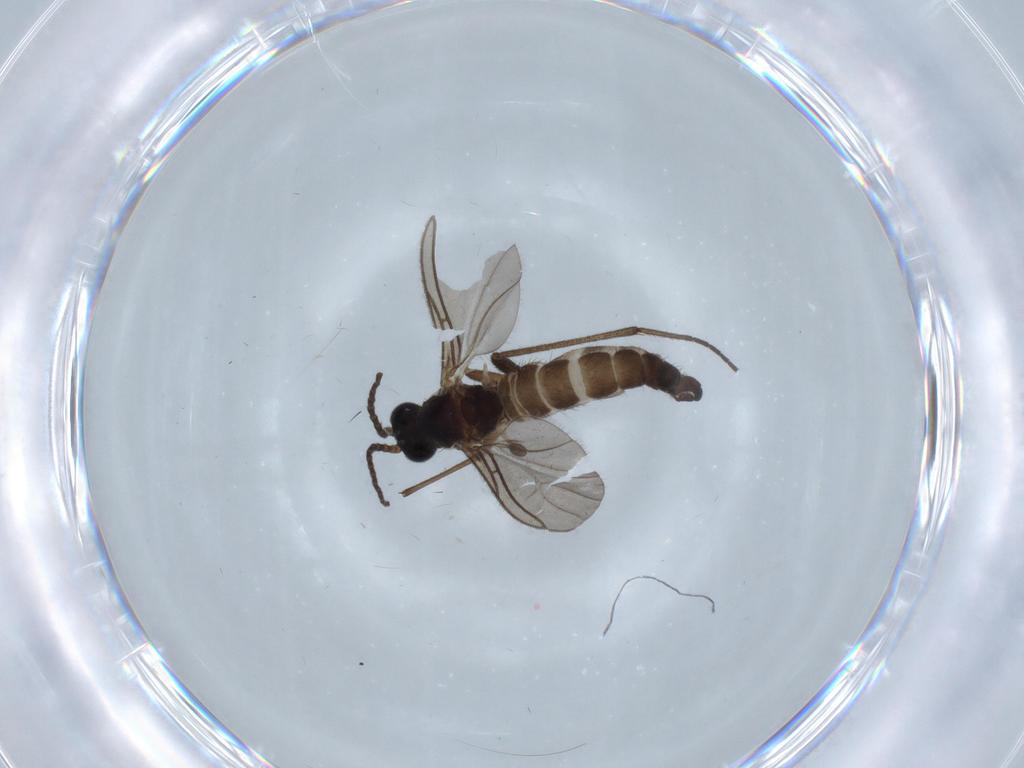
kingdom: Animalia
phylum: Arthropoda
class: Insecta
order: Diptera
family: Sciaridae
